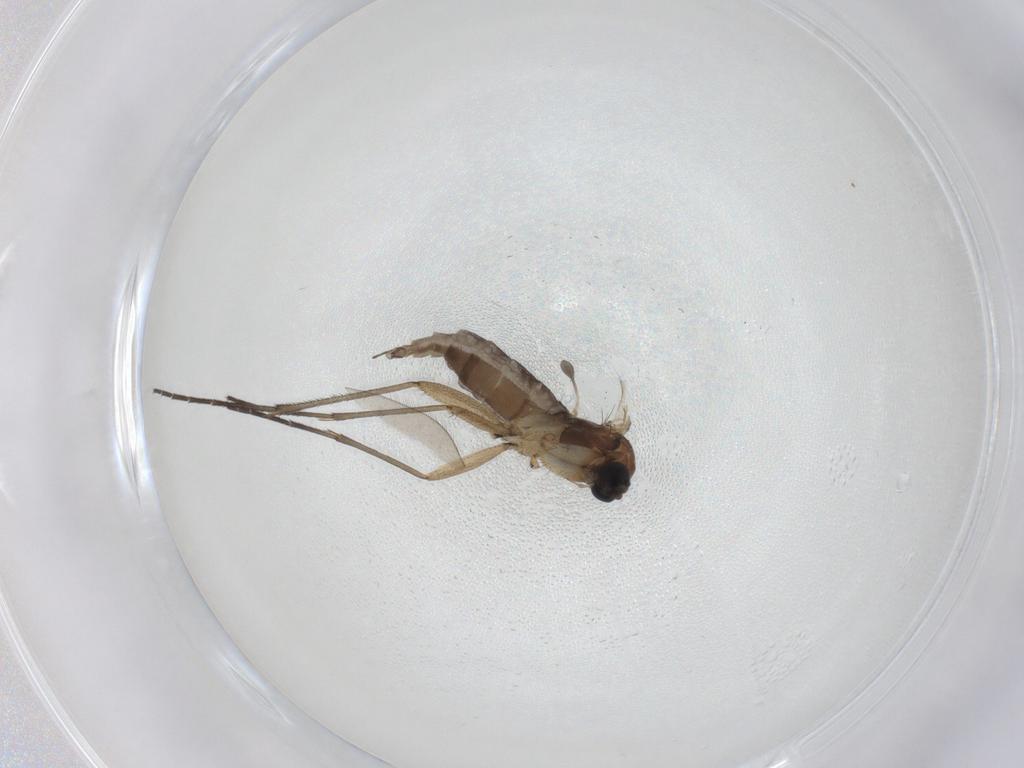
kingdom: Animalia
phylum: Arthropoda
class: Insecta
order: Diptera
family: Sciaridae
